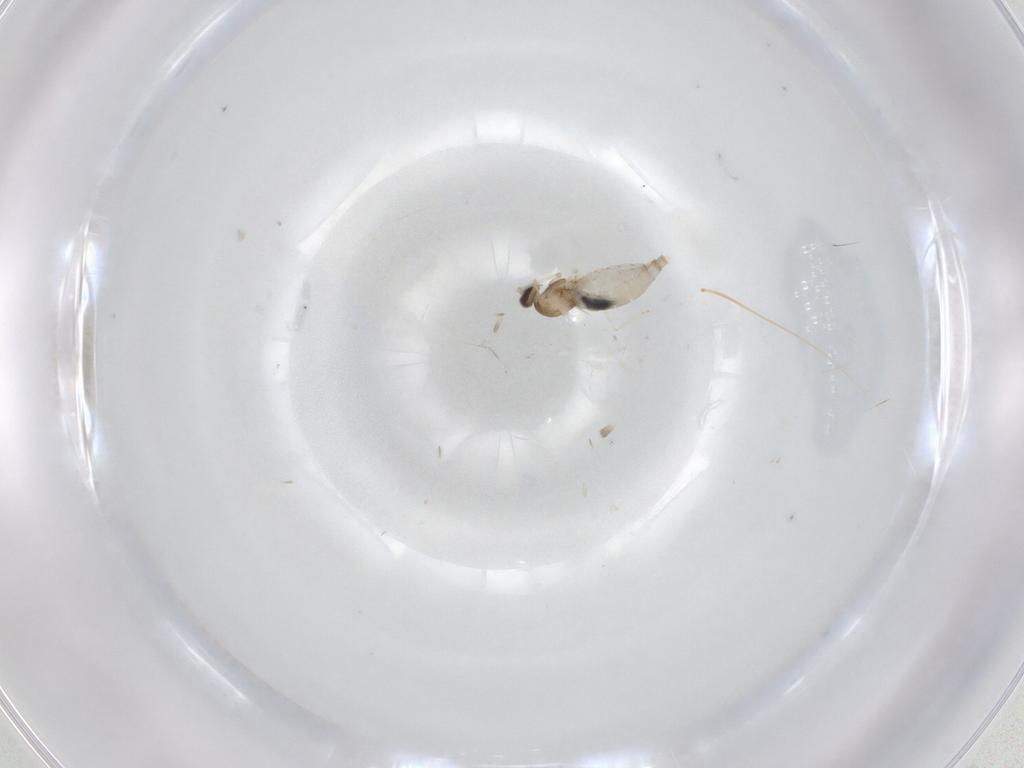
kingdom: Animalia
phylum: Arthropoda
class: Insecta
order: Diptera
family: Cecidomyiidae
